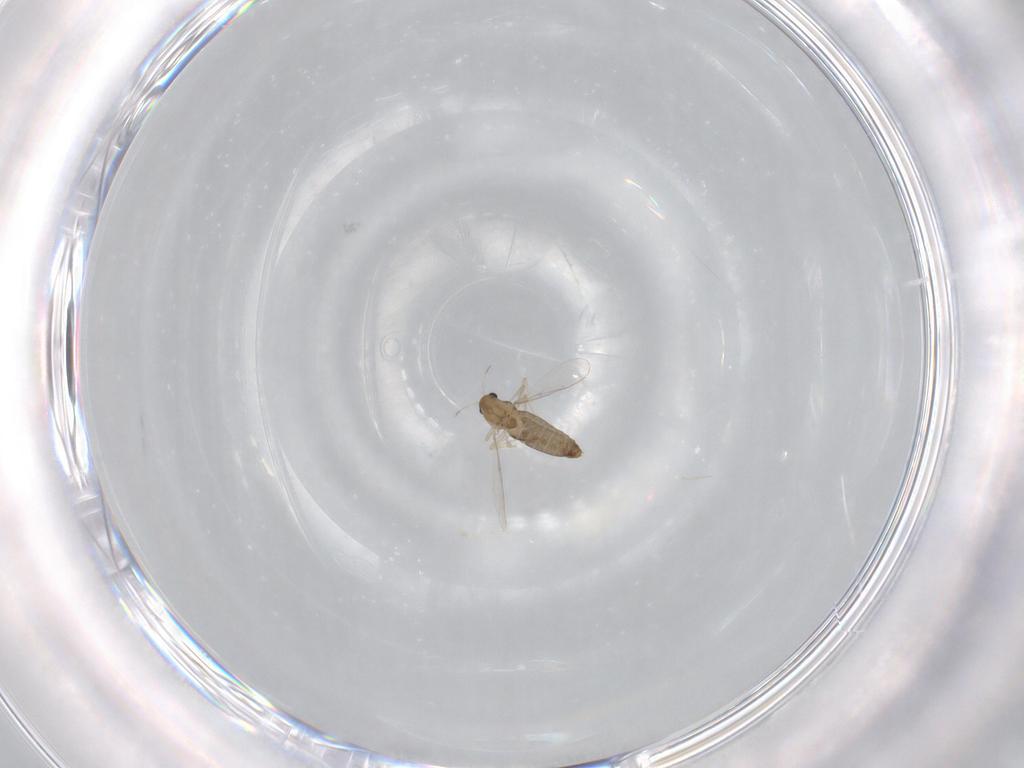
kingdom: Animalia
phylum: Arthropoda
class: Insecta
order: Diptera
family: Chironomidae
